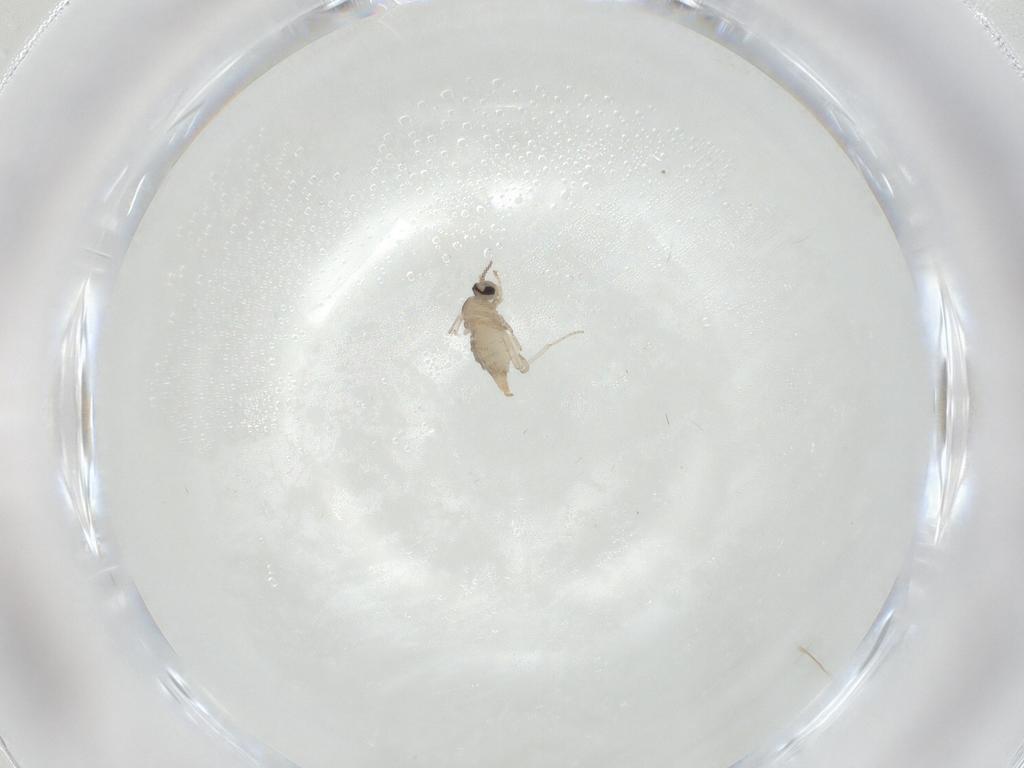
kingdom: Animalia
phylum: Arthropoda
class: Insecta
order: Diptera
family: Cecidomyiidae
